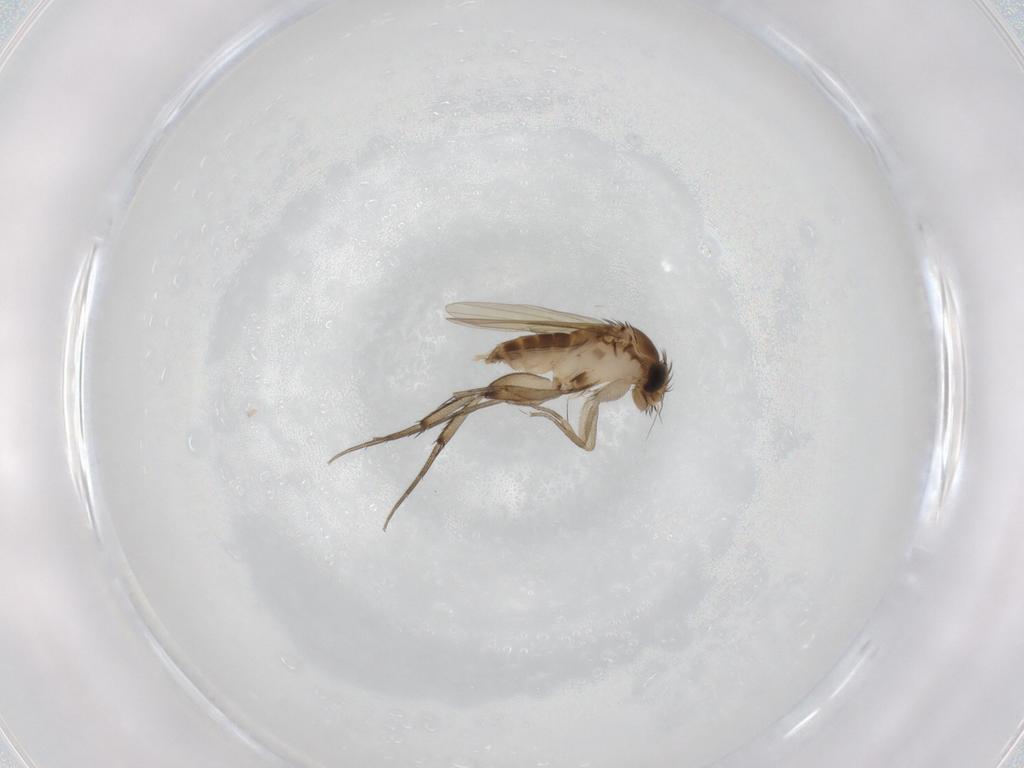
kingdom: Animalia
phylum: Arthropoda
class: Insecta
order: Diptera
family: Phoridae
